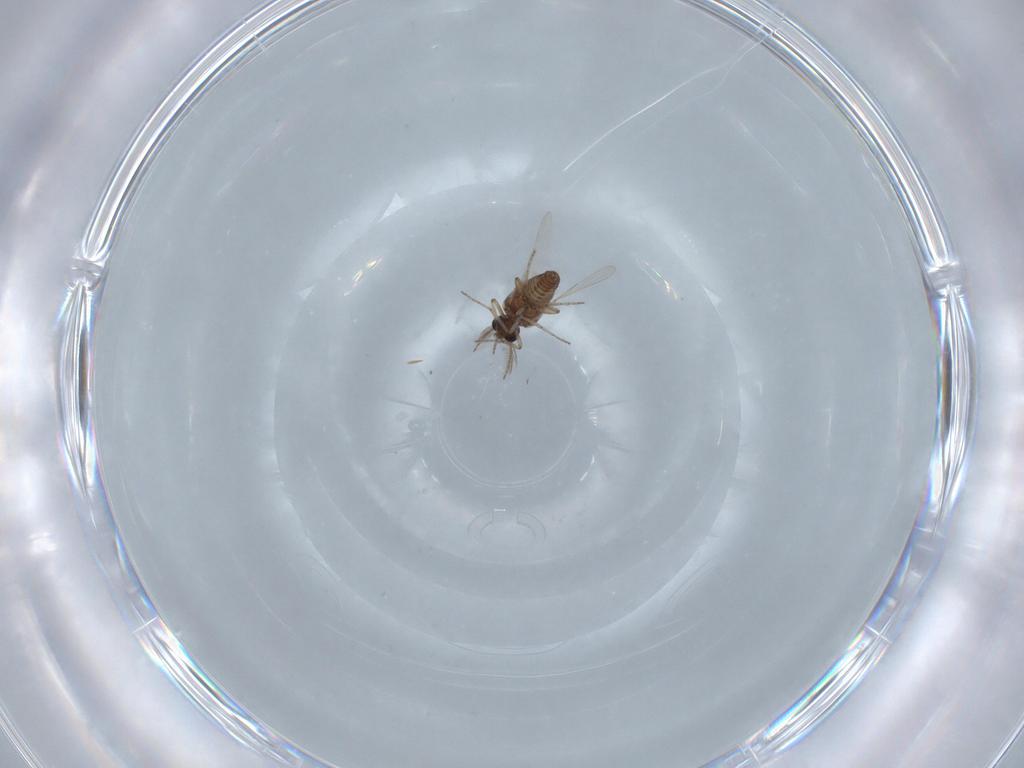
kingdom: Animalia
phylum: Arthropoda
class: Insecta
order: Diptera
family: Ceratopogonidae
